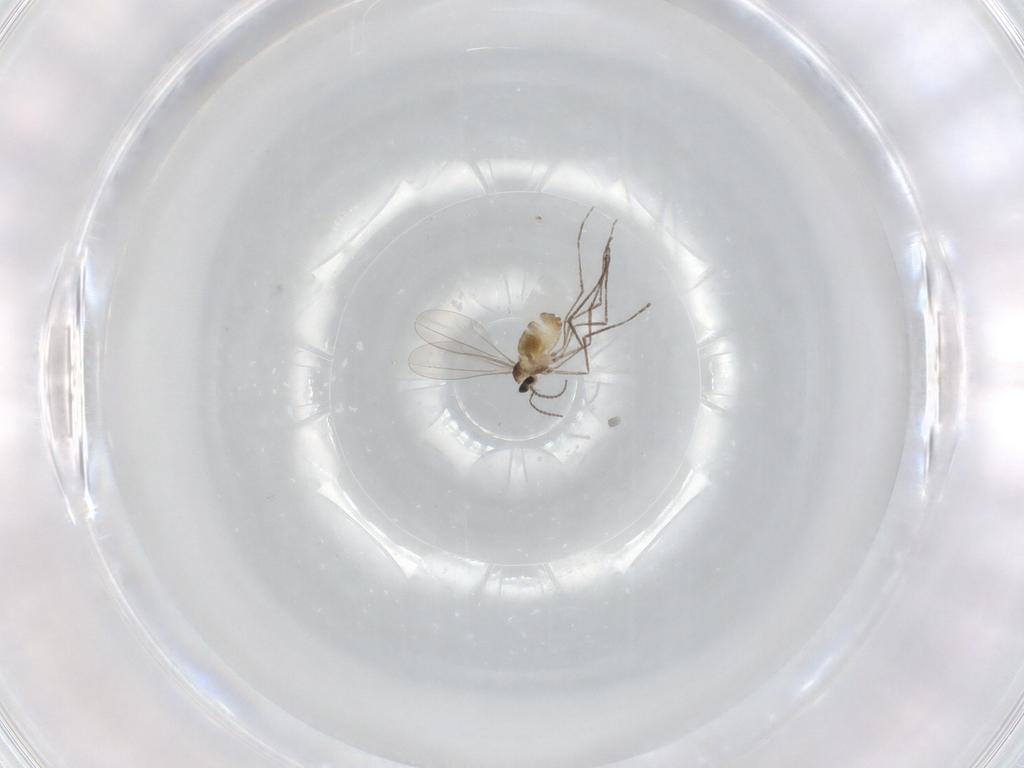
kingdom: Animalia
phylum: Arthropoda
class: Insecta
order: Diptera
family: Cecidomyiidae
